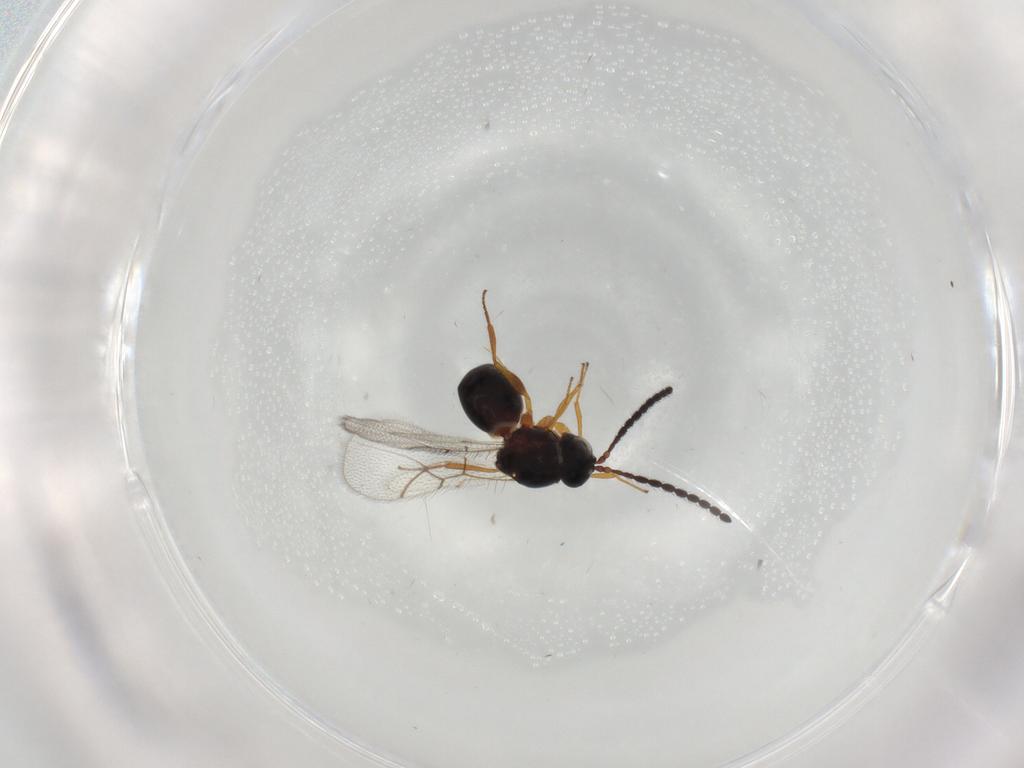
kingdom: Animalia
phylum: Arthropoda
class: Insecta
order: Hymenoptera
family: Figitidae
